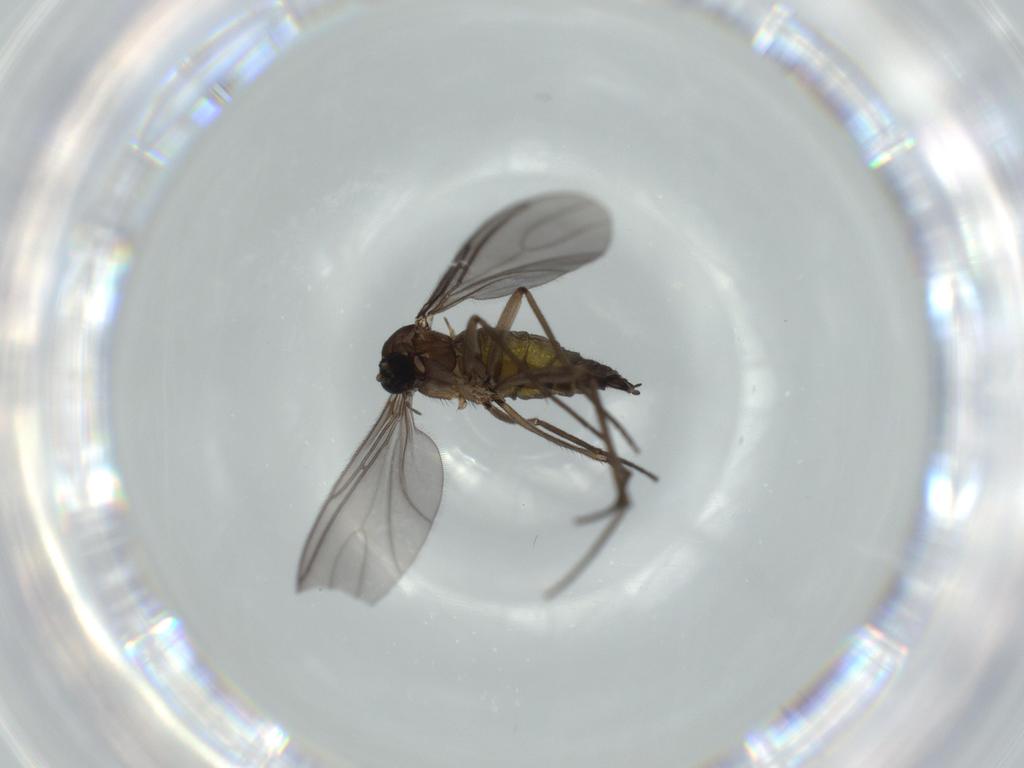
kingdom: Animalia
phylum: Arthropoda
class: Insecta
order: Diptera
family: Sciaridae
